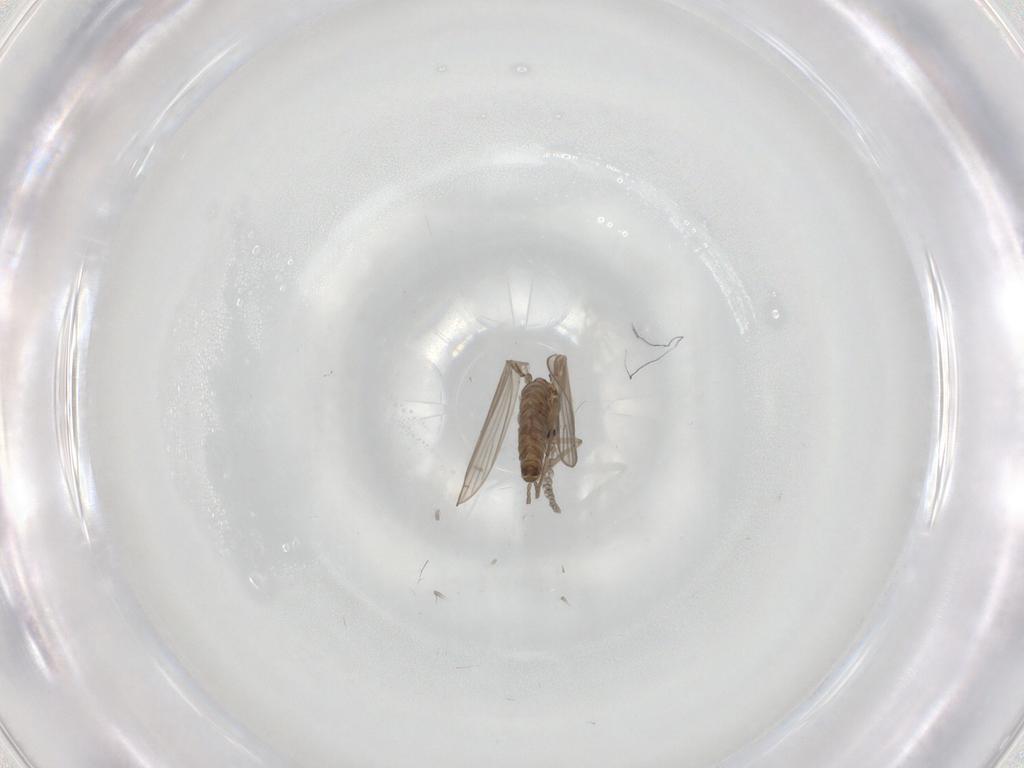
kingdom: Animalia
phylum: Arthropoda
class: Insecta
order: Diptera
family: Psychodidae
